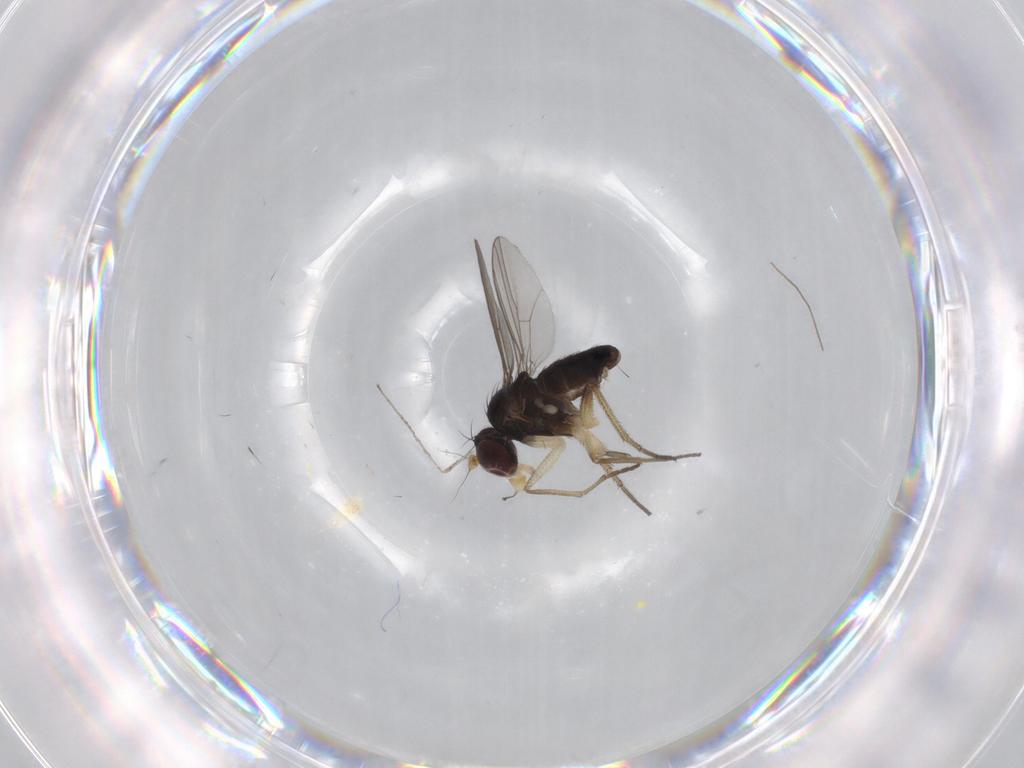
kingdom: Animalia
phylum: Arthropoda
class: Insecta
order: Diptera
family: Dolichopodidae
